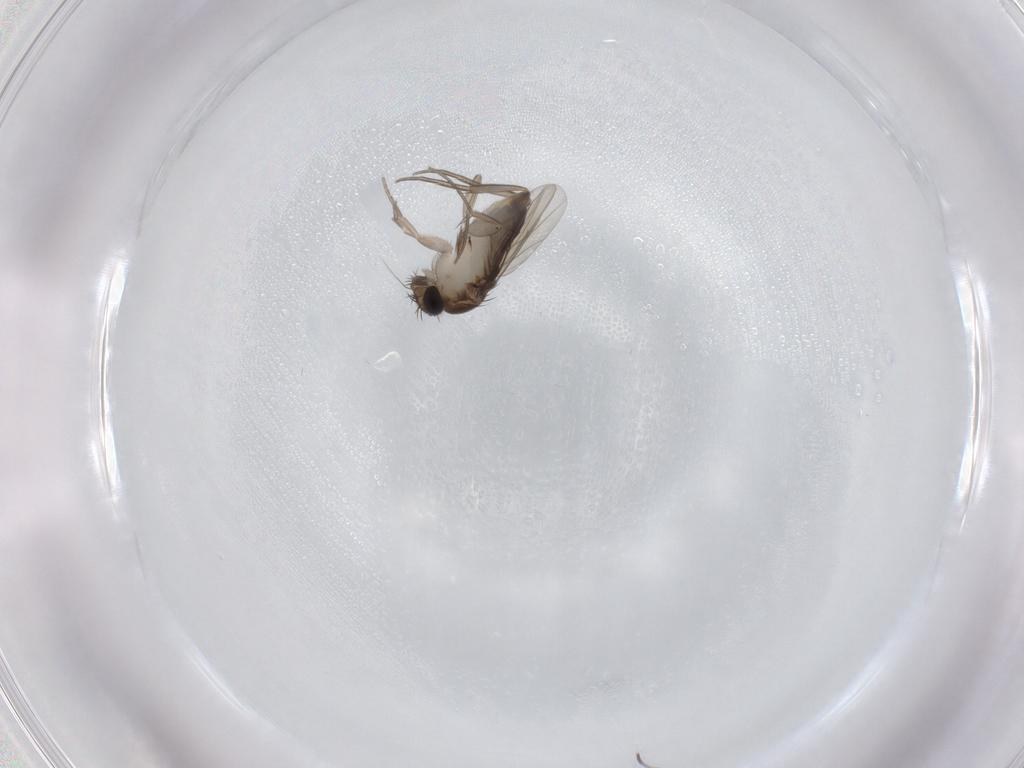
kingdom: Animalia
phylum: Arthropoda
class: Insecta
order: Diptera
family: Phoridae
